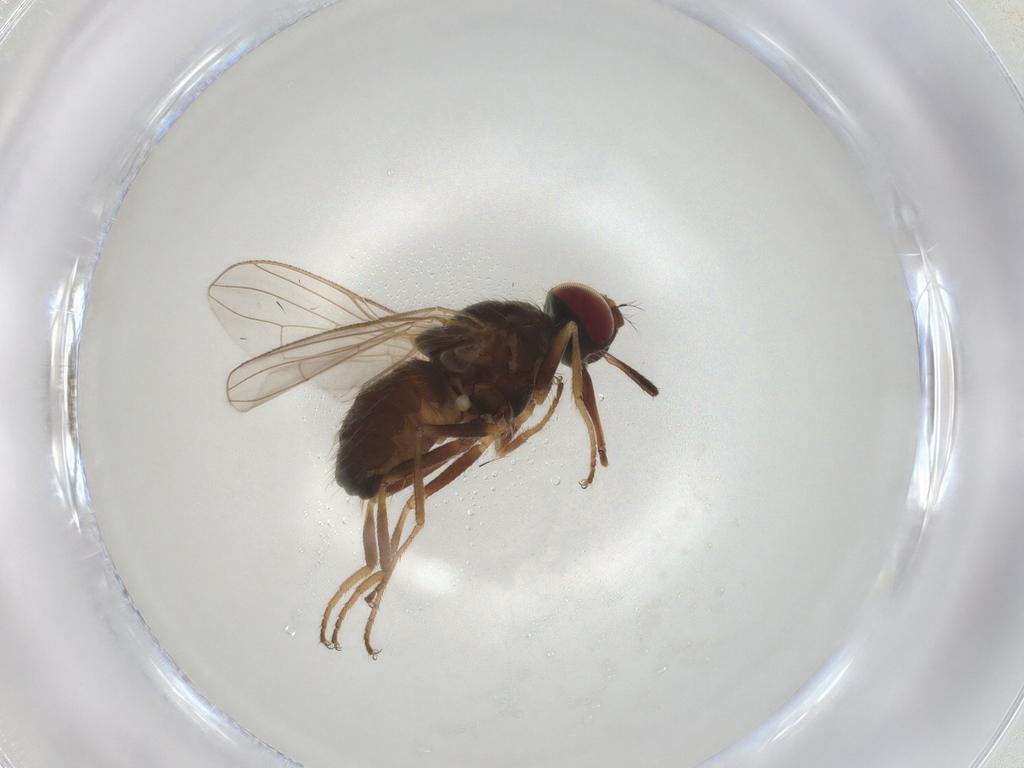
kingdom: Animalia
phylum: Arthropoda
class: Insecta
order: Diptera
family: Muscidae
